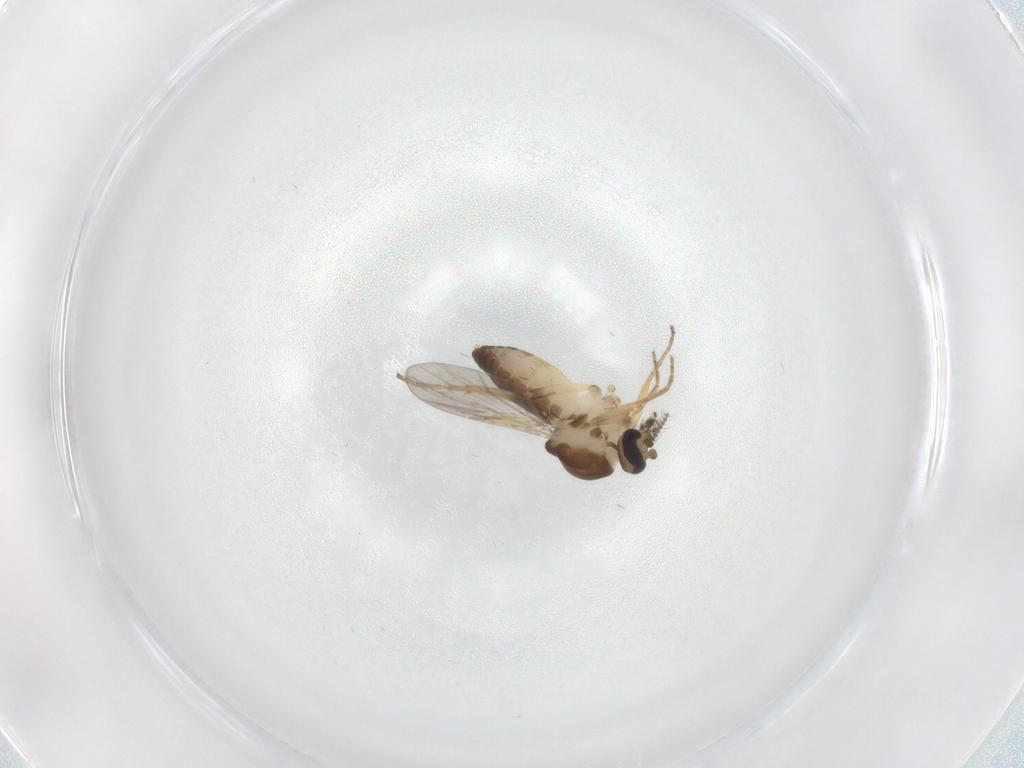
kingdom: Animalia
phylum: Arthropoda
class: Insecta
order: Diptera
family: Ceratopogonidae
